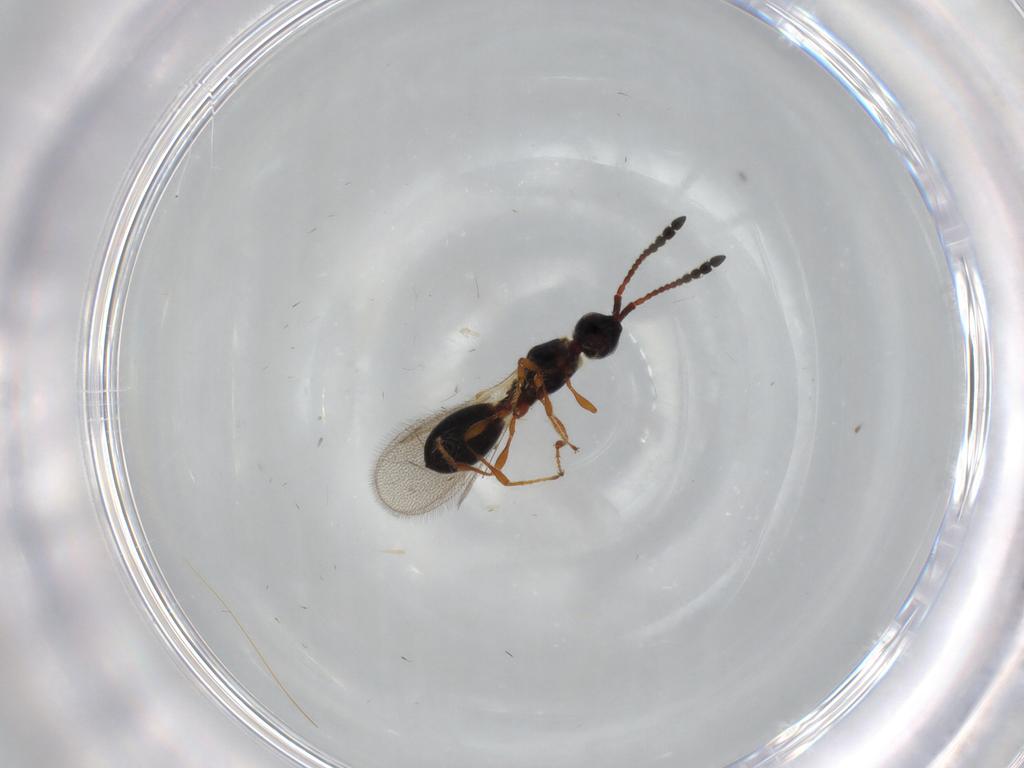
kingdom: Animalia
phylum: Arthropoda
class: Insecta
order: Hymenoptera
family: Diapriidae
